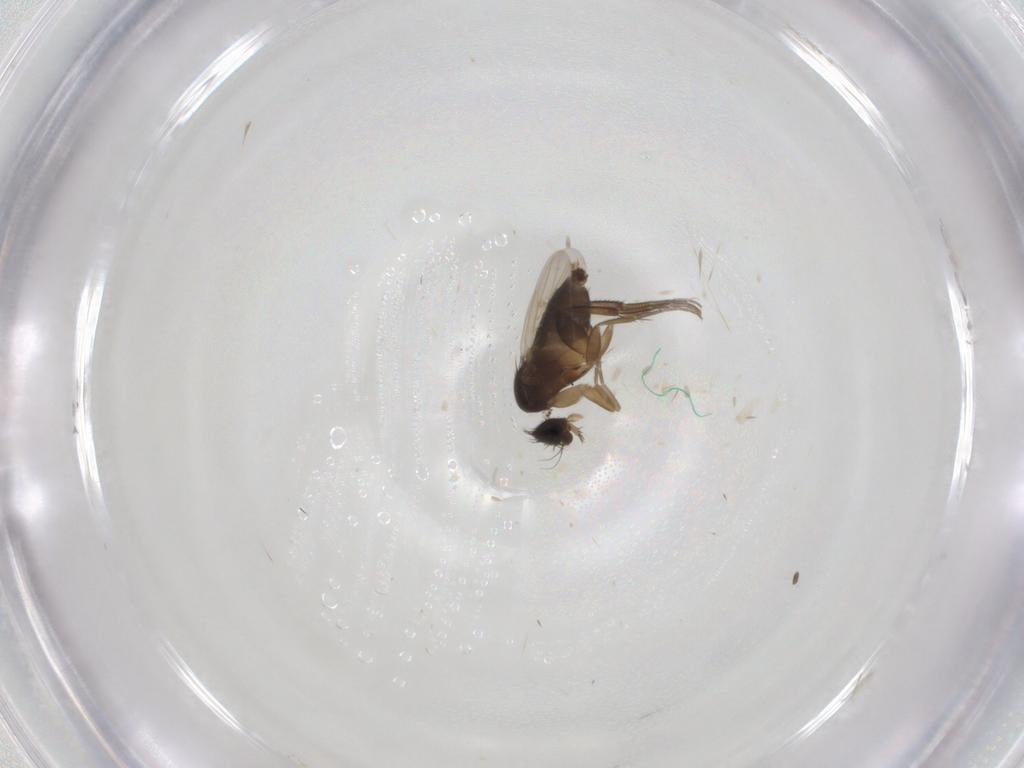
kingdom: Animalia
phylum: Arthropoda
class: Insecta
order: Diptera
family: Phoridae
